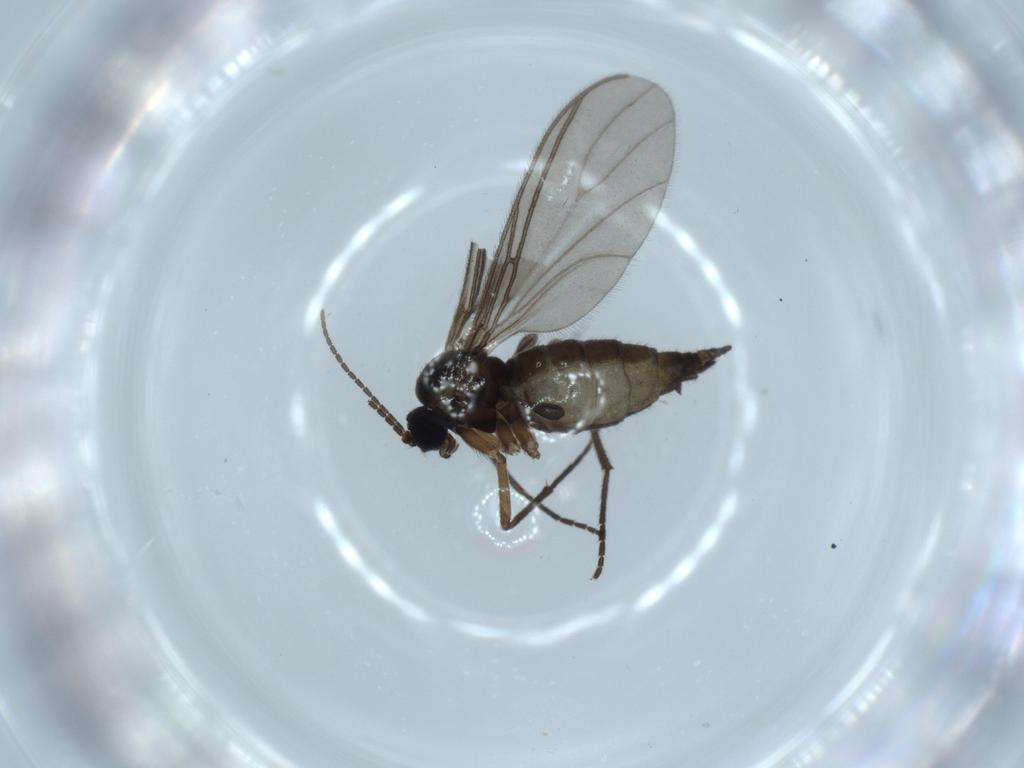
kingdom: Animalia
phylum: Arthropoda
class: Insecta
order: Diptera
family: Sciaridae
